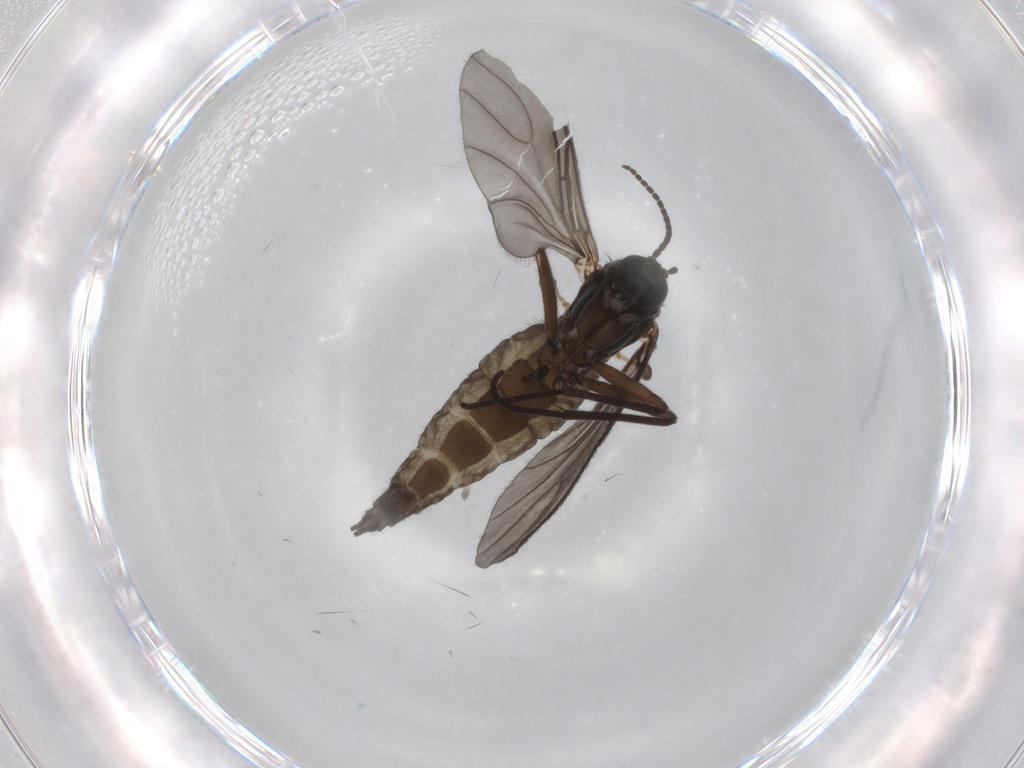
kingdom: Animalia
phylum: Arthropoda
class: Insecta
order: Diptera
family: Sciaridae
